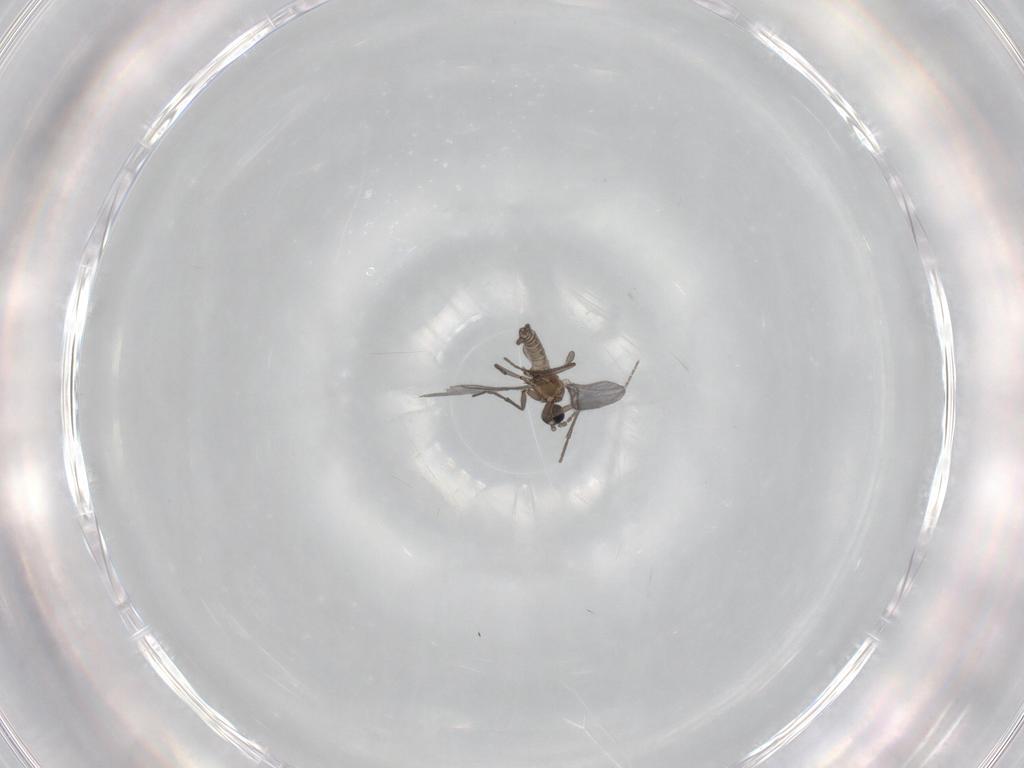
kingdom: Animalia
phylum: Arthropoda
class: Insecta
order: Diptera
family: Sciaridae
